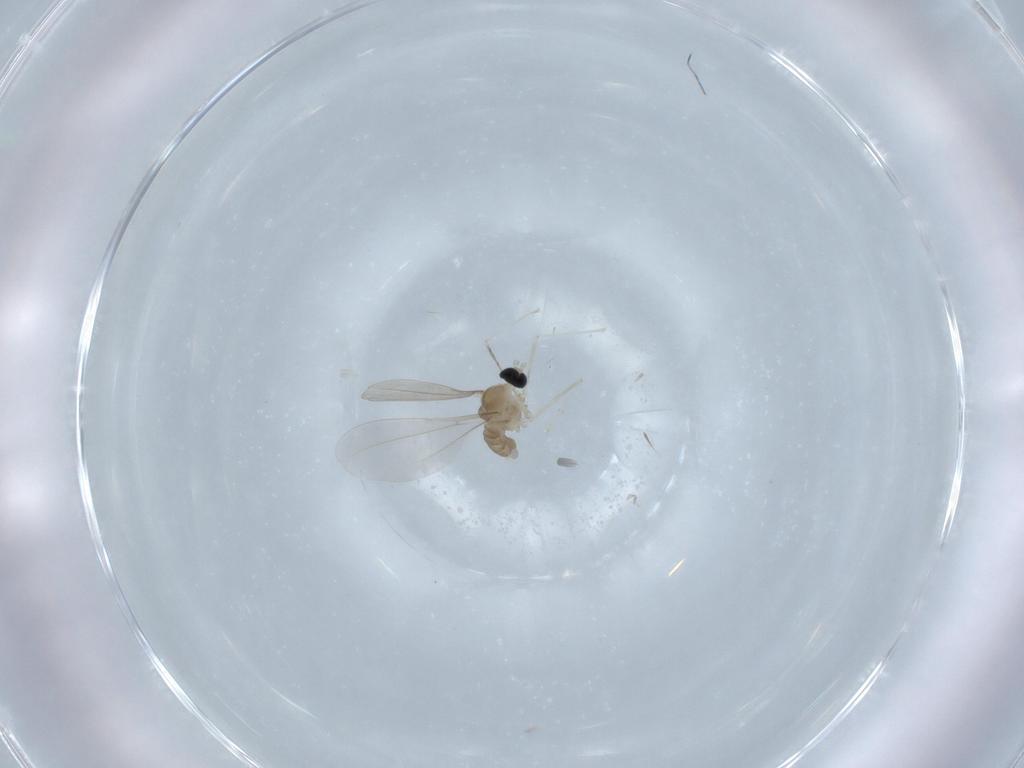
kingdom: Animalia
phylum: Arthropoda
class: Insecta
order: Diptera
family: Cecidomyiidae
